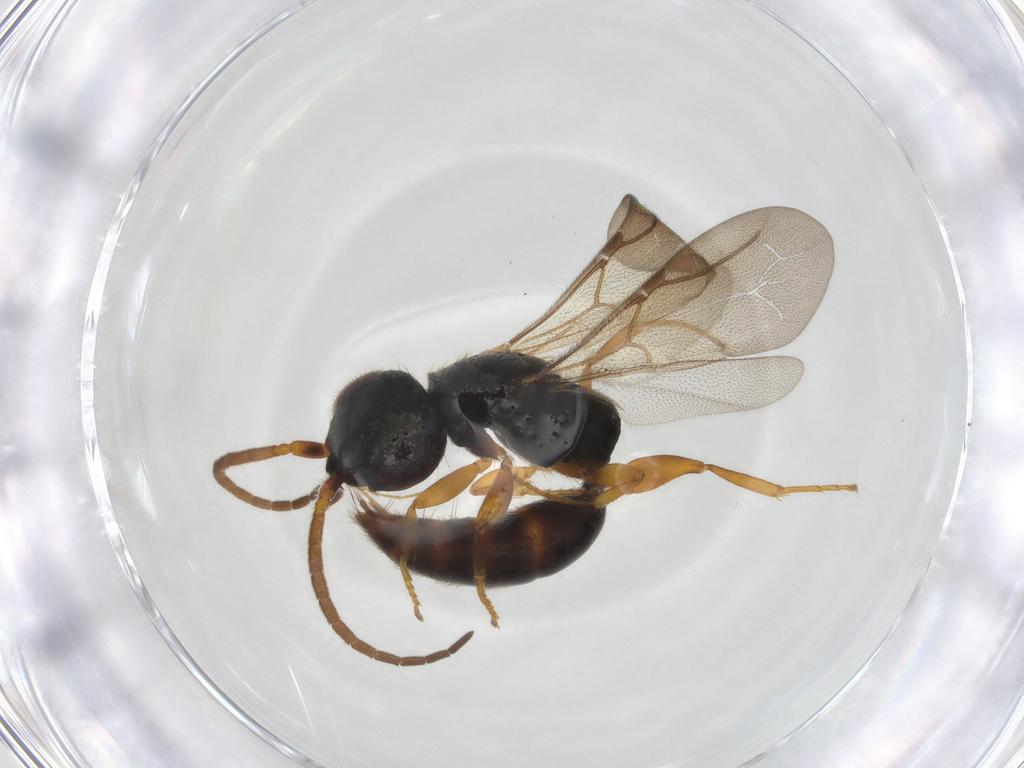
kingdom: Animalia
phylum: Arthropoda
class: Insecta
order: Hymenoptera
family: Bethylidae
